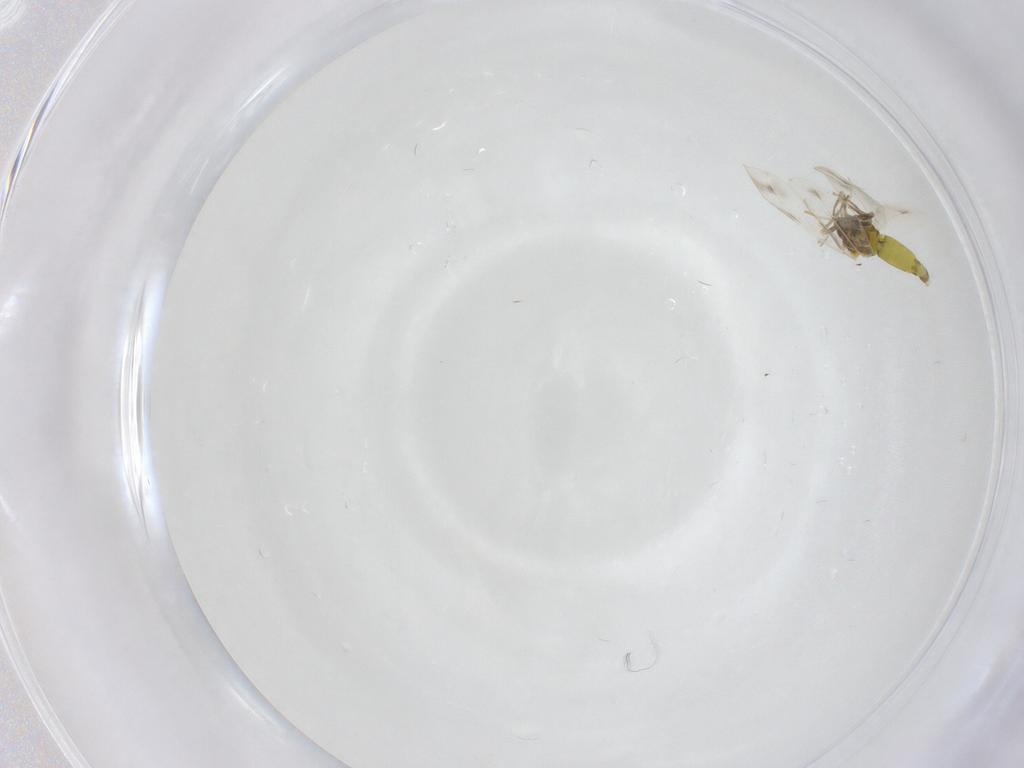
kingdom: Animalia
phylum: Arthropoda
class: Insecta
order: Hemiptera
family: Aleyrodidae
